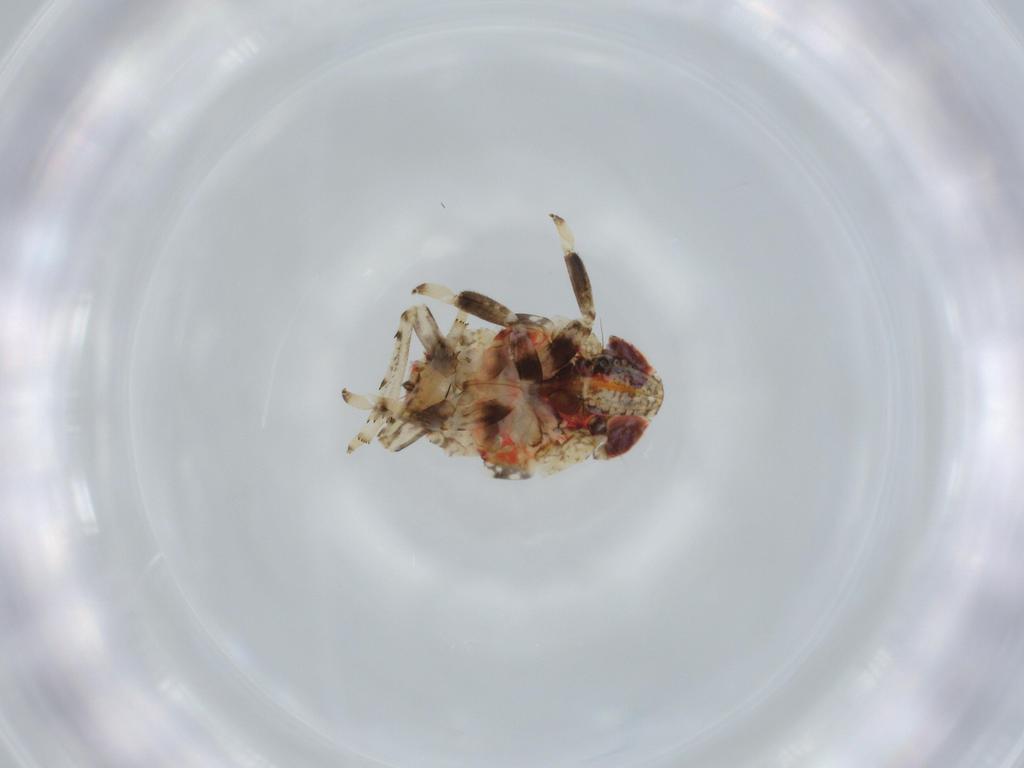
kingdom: Animalia
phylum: Arthropoda
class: Insecta
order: Hemiptera
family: Issidae
